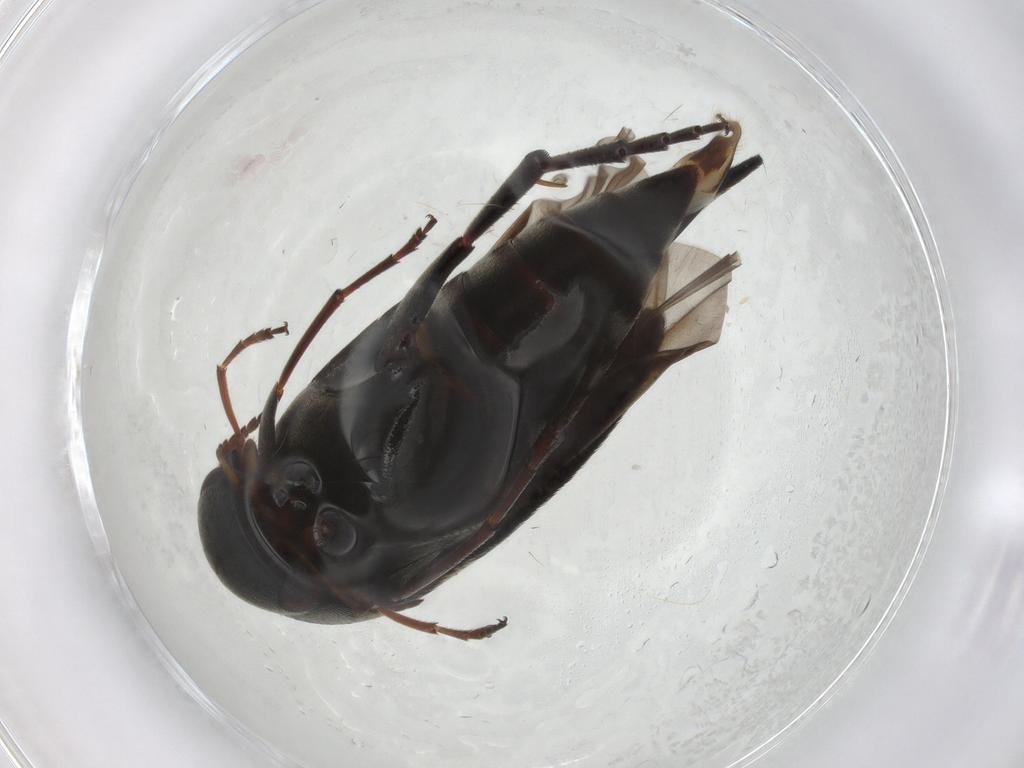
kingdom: Animalia
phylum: Arthropoda
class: Insecta
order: Coleoptera
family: Mordellidae
